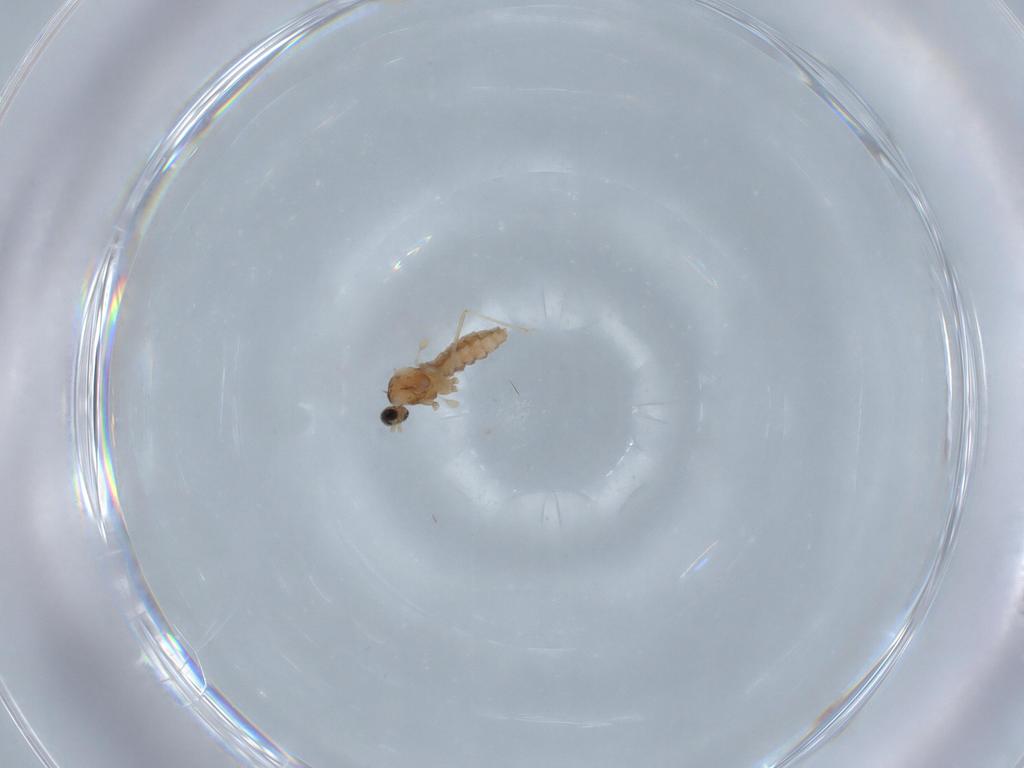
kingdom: Animalia
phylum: Arthropoda
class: Insecta
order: Diptera
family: Cecidomyiidae
